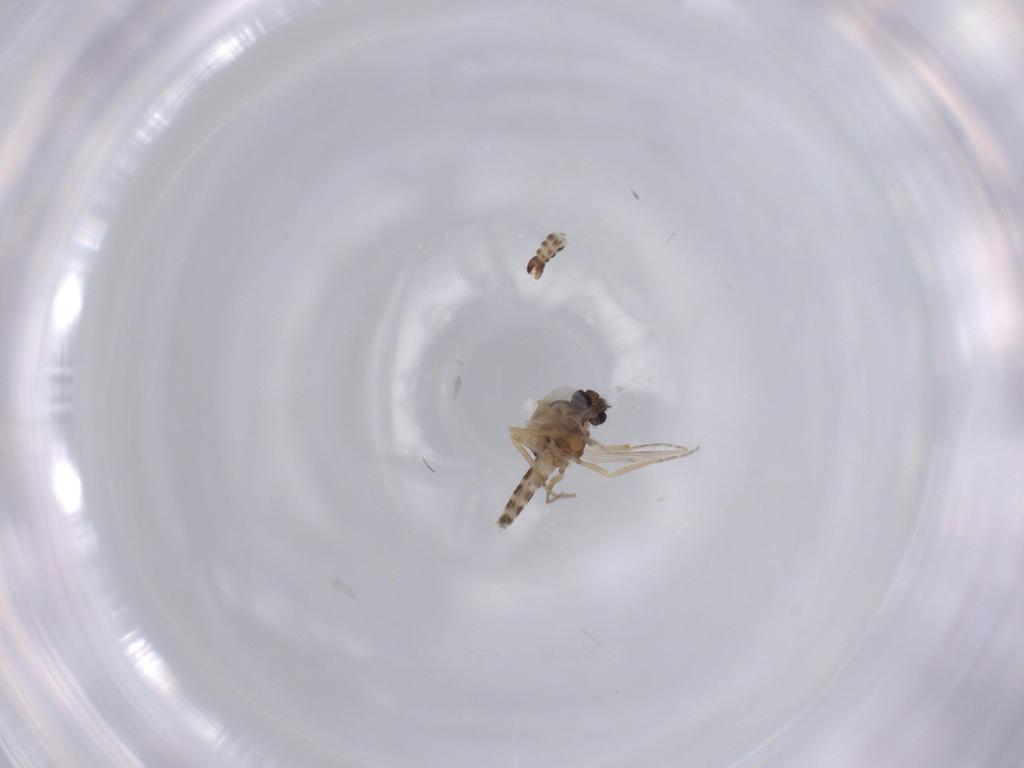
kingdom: Animalia
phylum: Arthropoda
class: Insecta
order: Diptera
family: Ceratopogonidae
